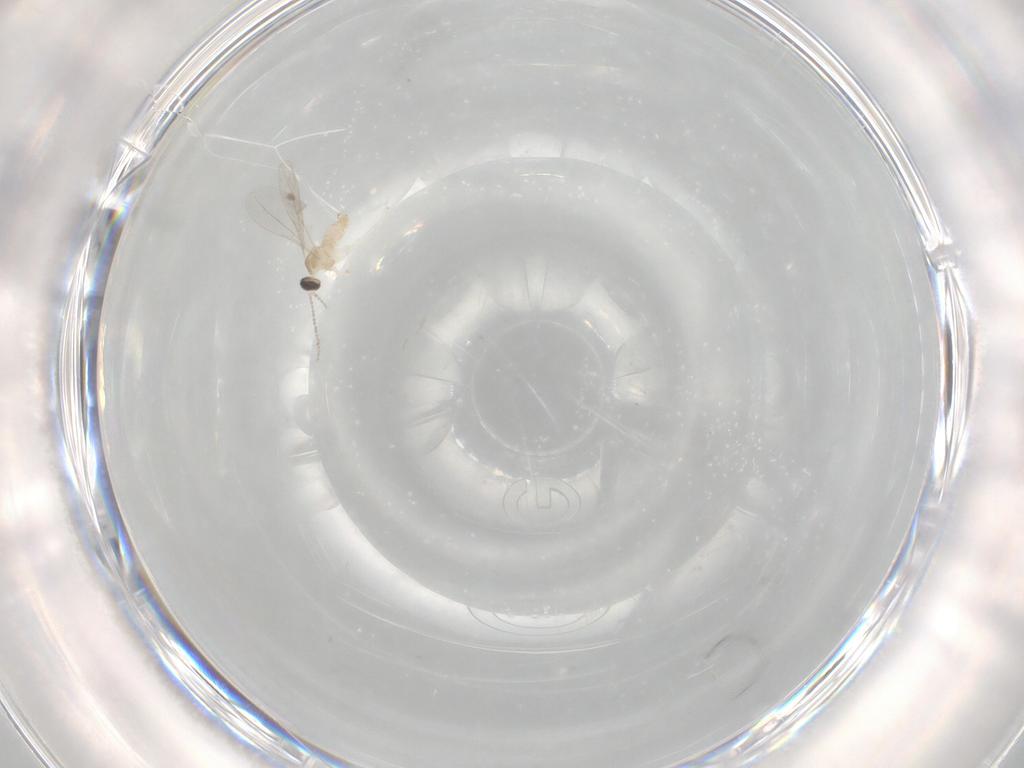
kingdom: Animalia
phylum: Arthropoda
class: Insecta
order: Diptera
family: Cecidomyiidae
